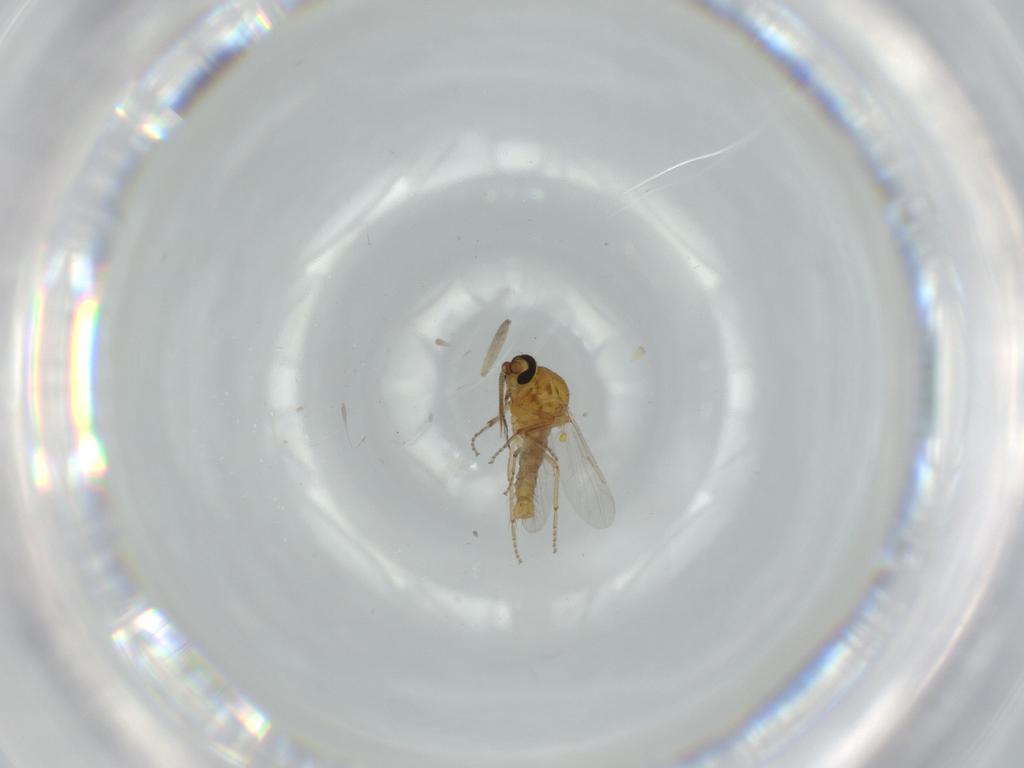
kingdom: Animalia
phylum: Arthropoda
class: Insecta
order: Diptera
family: Ceratopogonidae
